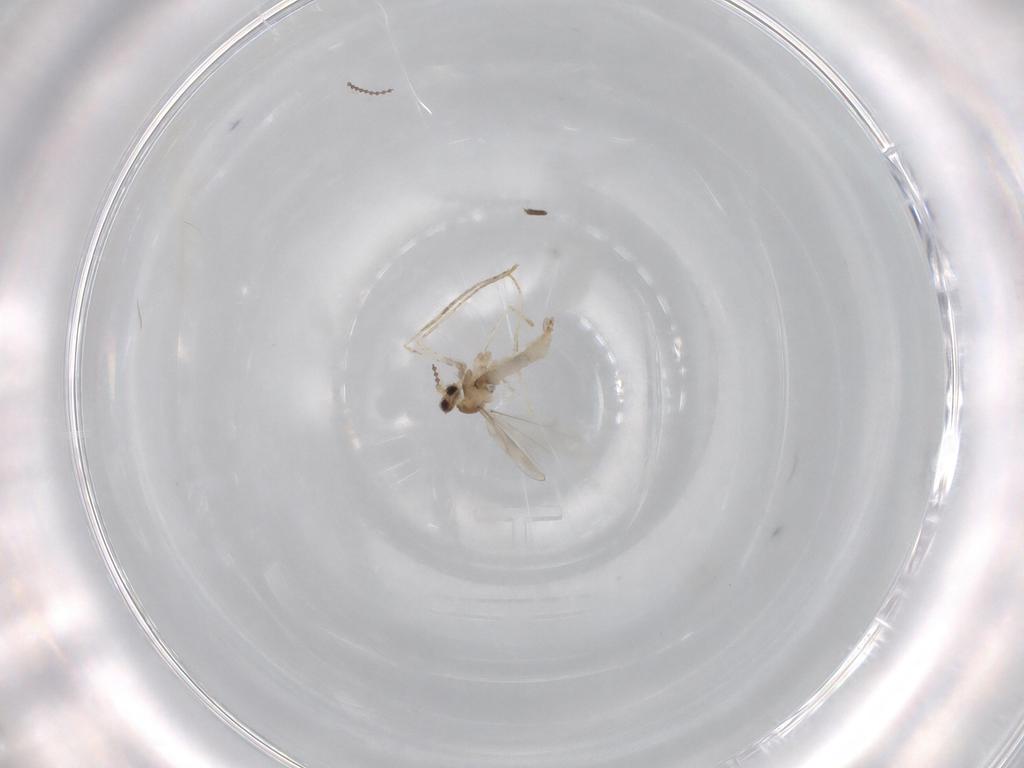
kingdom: Animalia
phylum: Arthropoda
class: Insecta
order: Diptera
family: Cecidomyiidae
